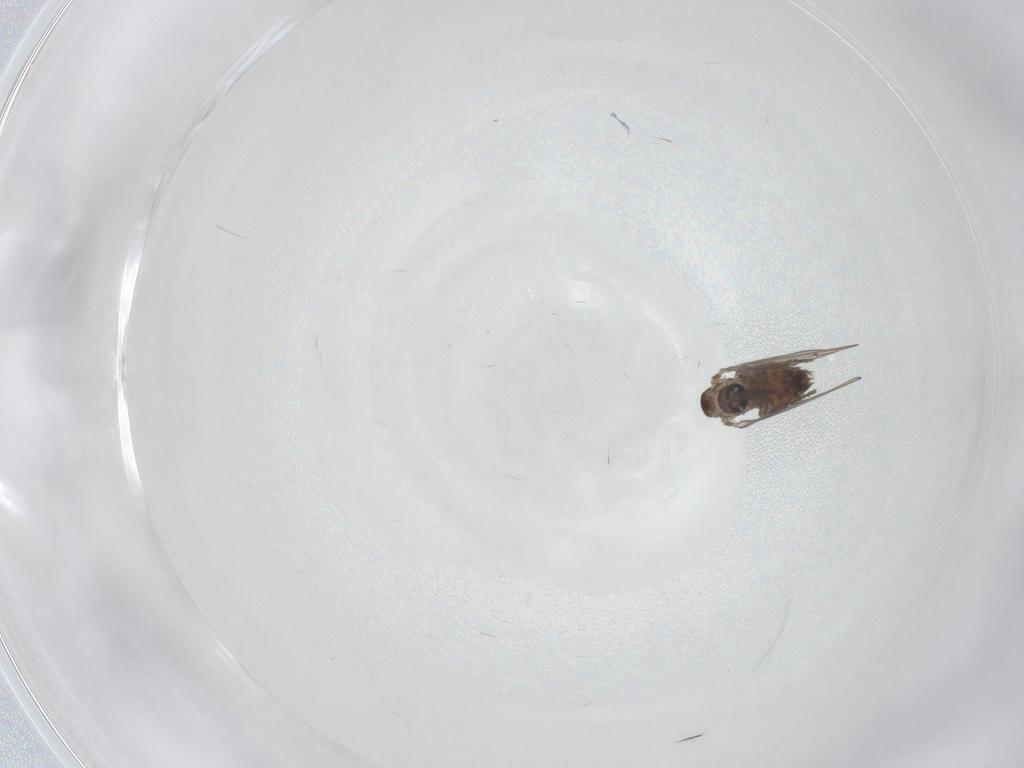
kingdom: Animalia
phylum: Arthropoda
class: Insecta
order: Diptera
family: Psychodidae
